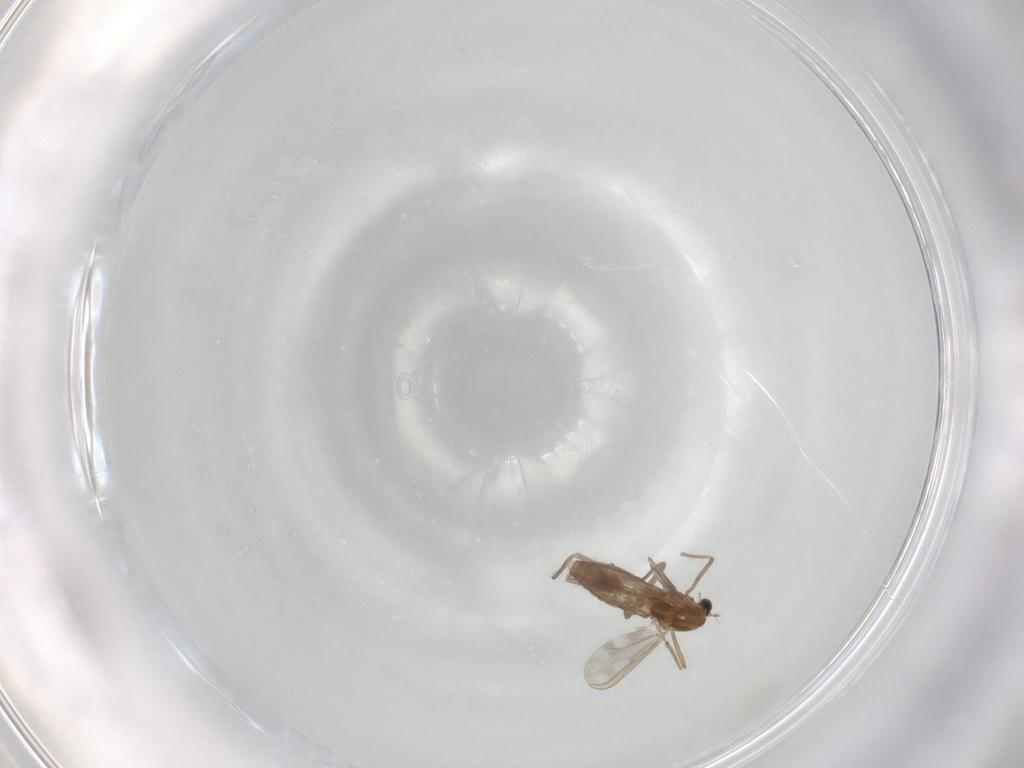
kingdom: Animalia
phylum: Arthropoda
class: Insecta
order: Diptera
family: Chironomidae
